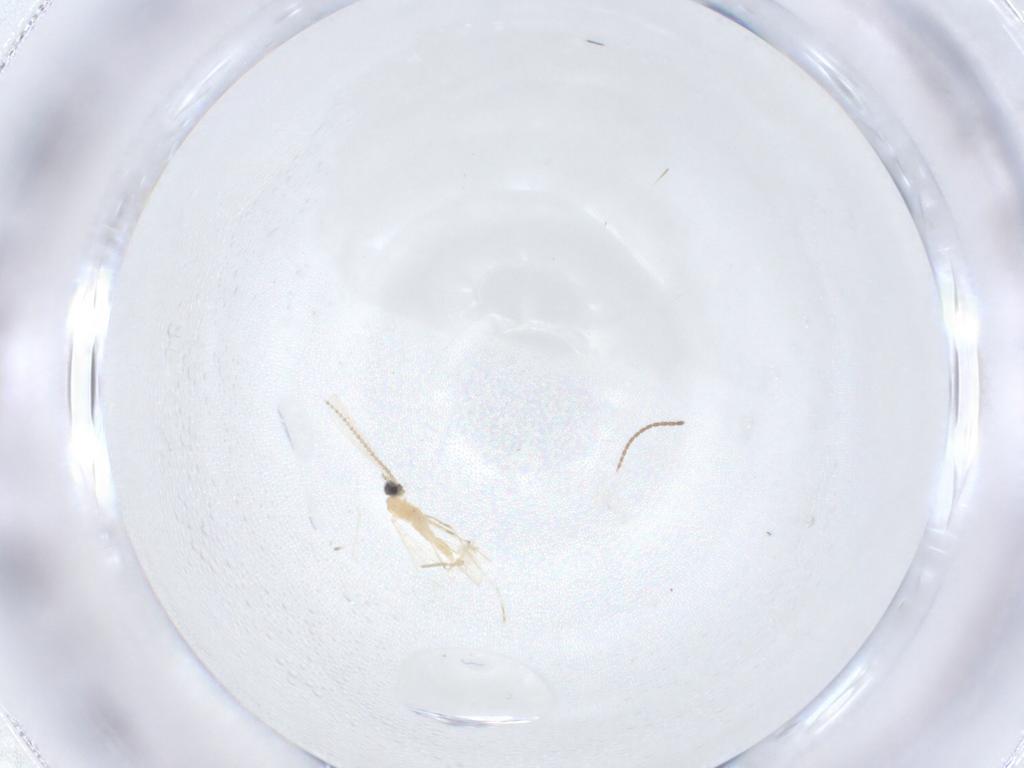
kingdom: Animalia
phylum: Arthropoda
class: Insecta
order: Diptera
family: Cecidomyiidae
